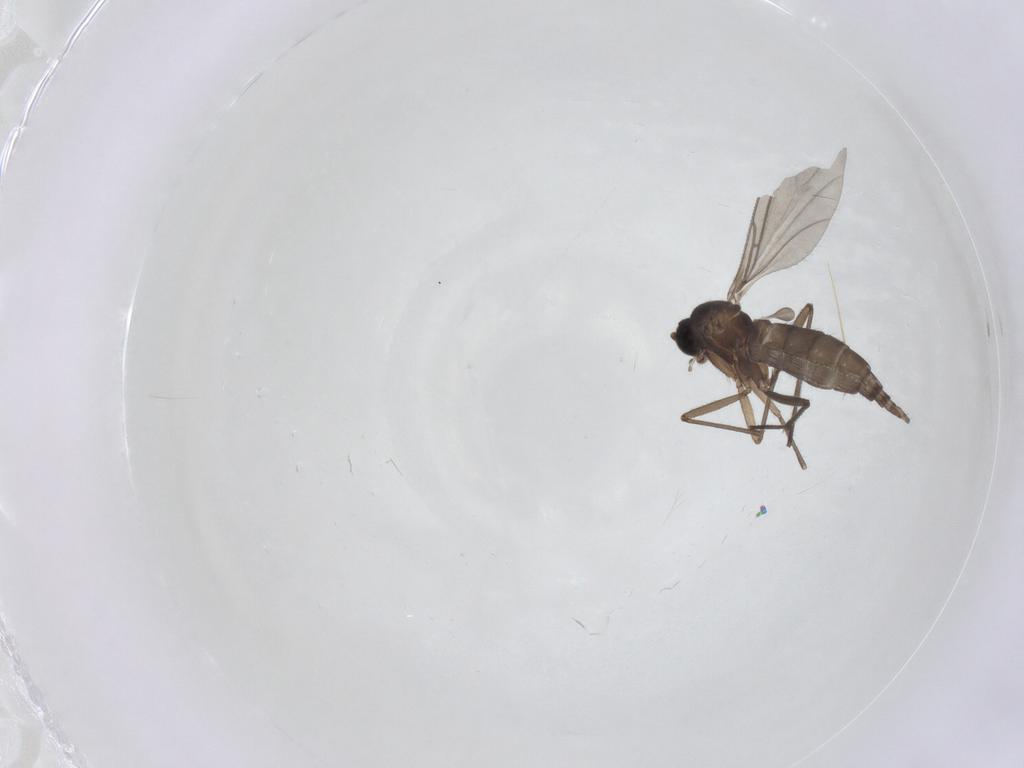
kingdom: Animalia
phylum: Arthropoda
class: Insecta
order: Diptera
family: Sciaridae
